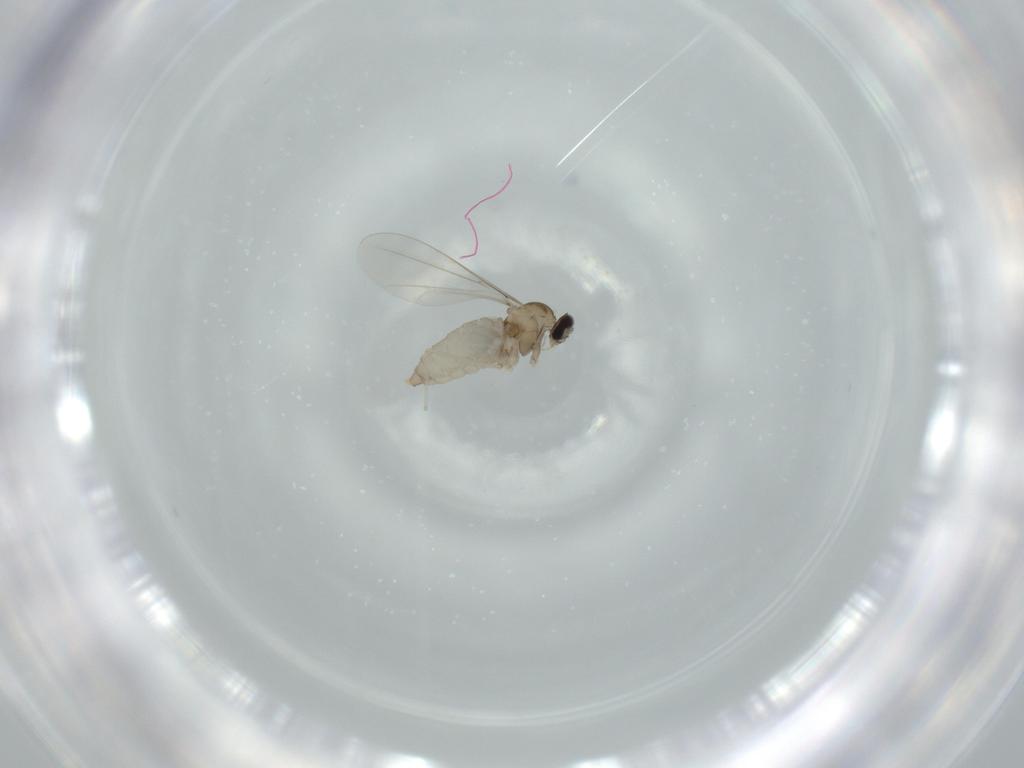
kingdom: Animalia
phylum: Arthropoda
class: Insecta
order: Diptera
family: Cecidomyiidae
